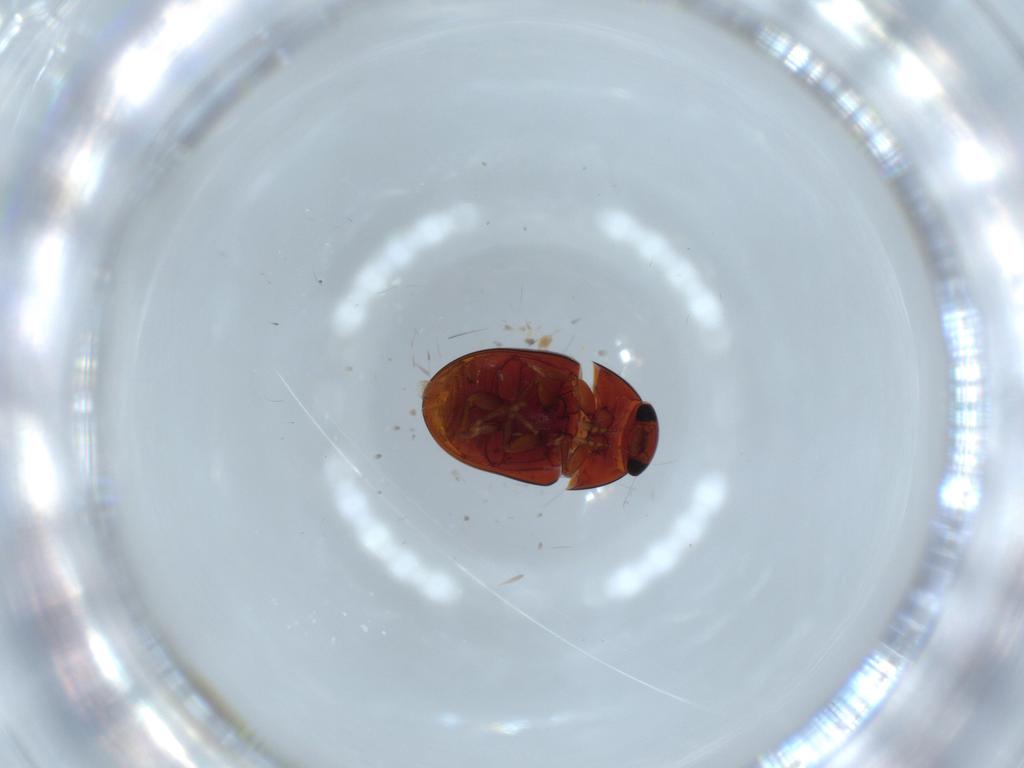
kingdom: Animalia
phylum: Arthropoda
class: Insecta
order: Coleoptera
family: Phalacridae
